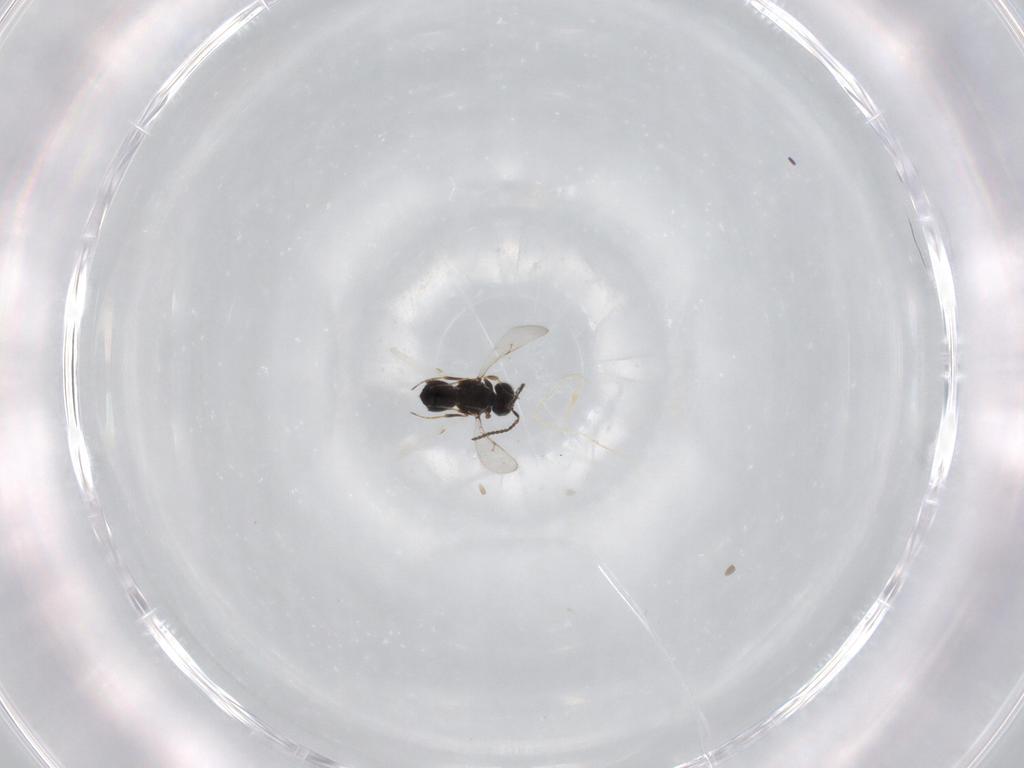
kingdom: Animalia
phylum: Arthropoda
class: Insecta
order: Hymenoptera
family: Scelionidae
